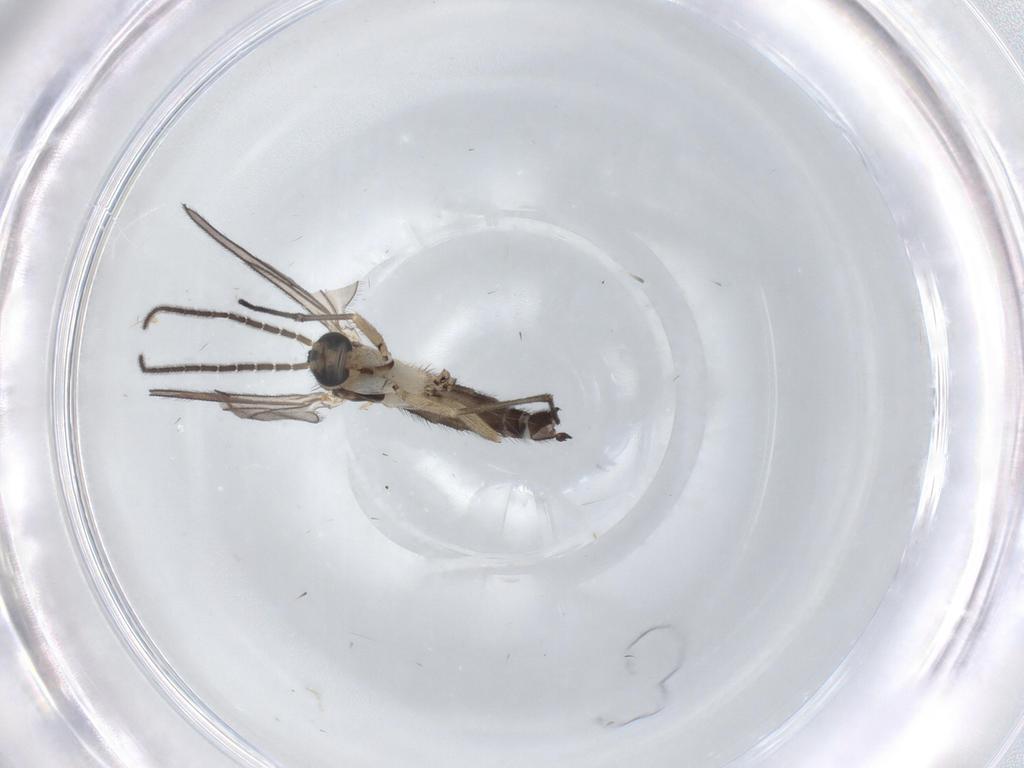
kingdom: Animalia
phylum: Arthropoda
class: Insecta
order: Diptera
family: Sciaridae
